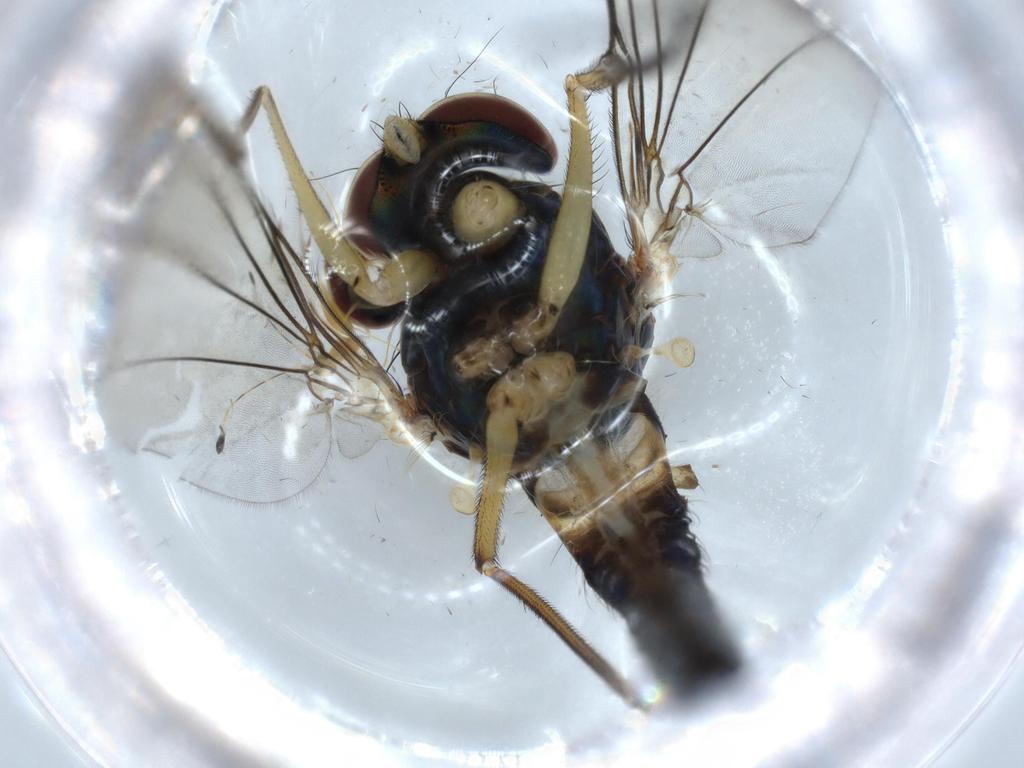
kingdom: Animalia
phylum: Arthropoda
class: Insecta
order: Diptera
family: Dolichopodidae
